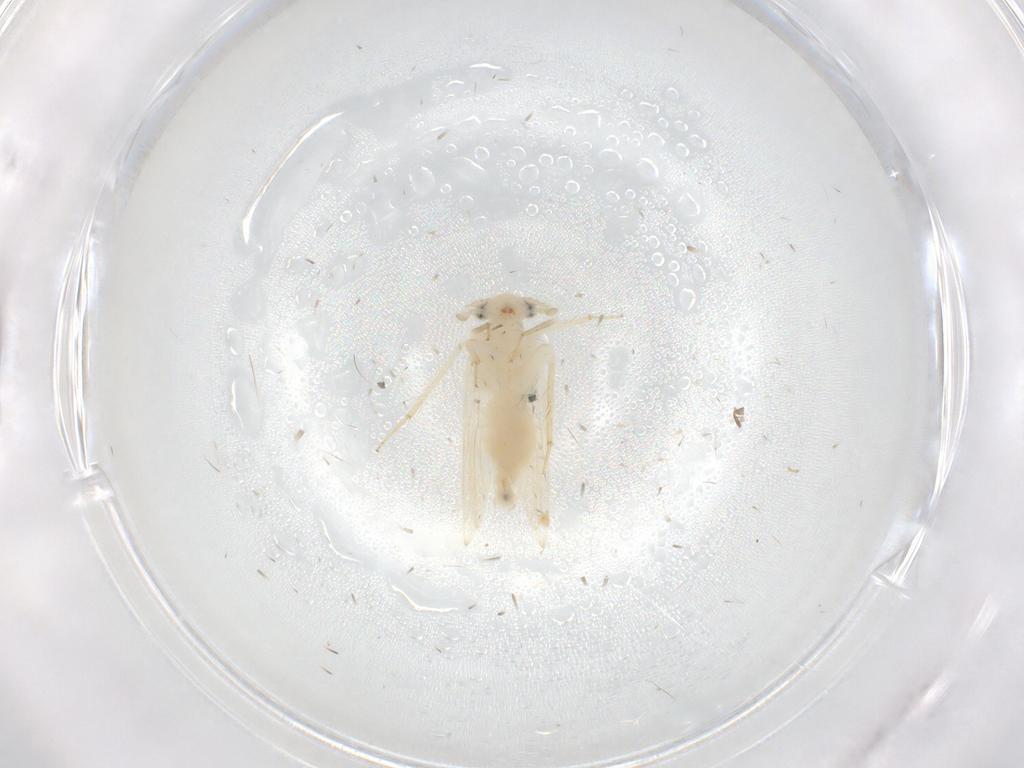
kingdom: Animalia
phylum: Arthropoda
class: Insecta
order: Psocodea
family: Lepidopsocidae
